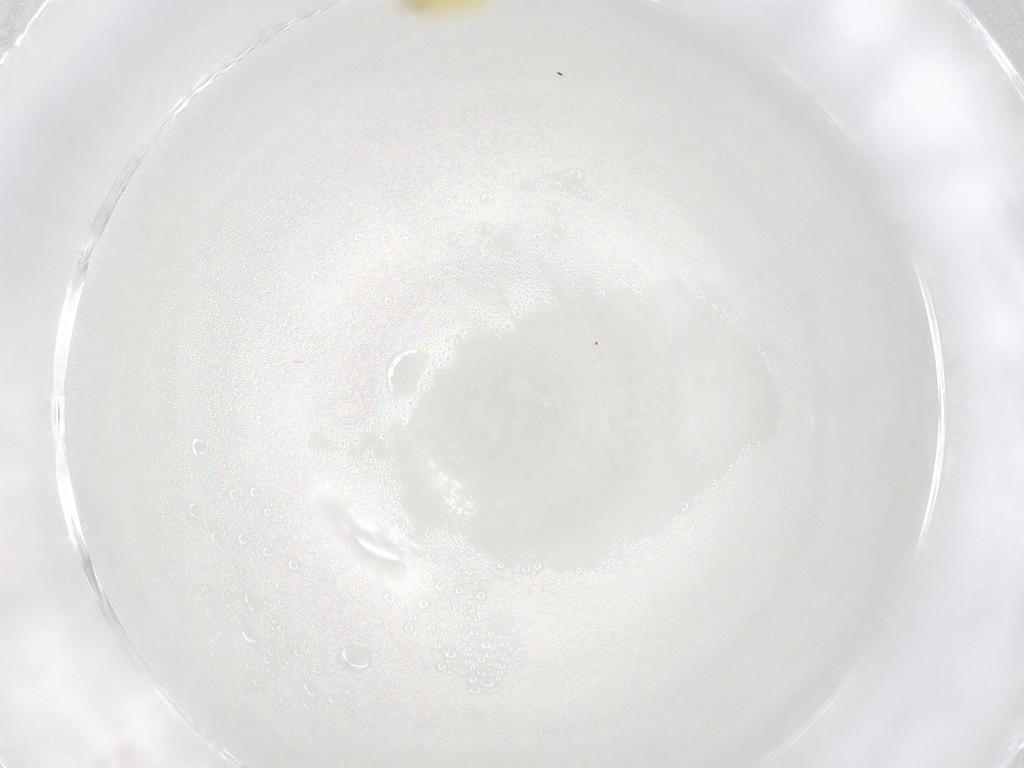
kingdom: Animalia
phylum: Arthropoda
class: Insecta
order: Hemiptera
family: Aleyrodidae
